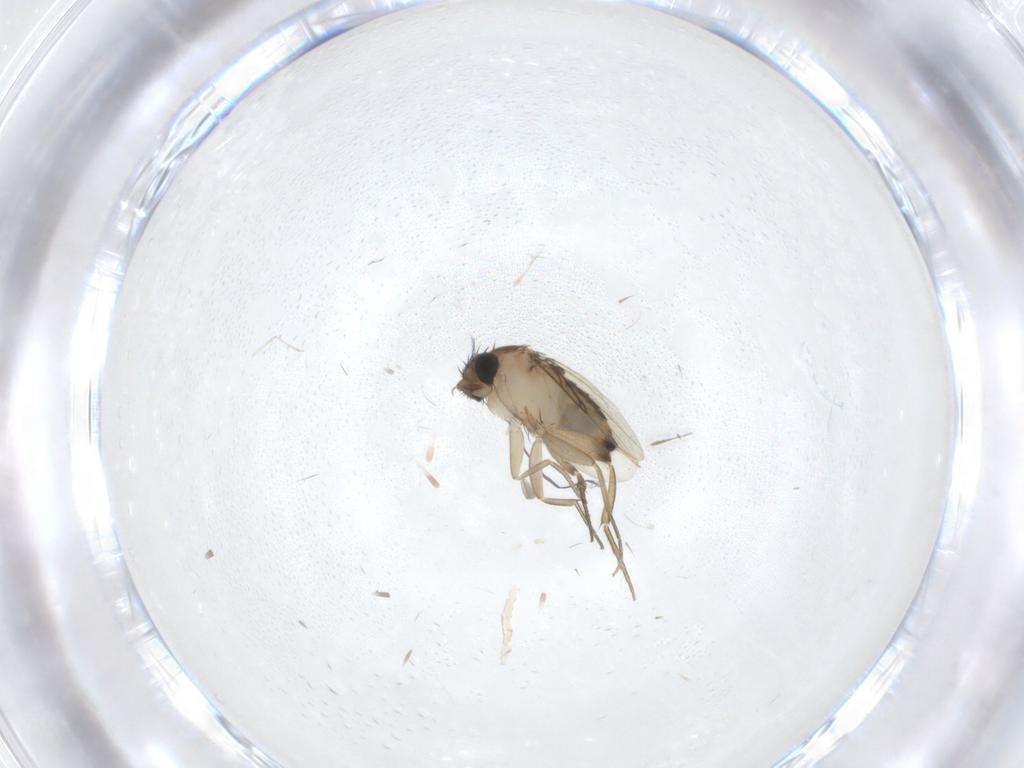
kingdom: Animalia
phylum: Arthropoda
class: Insecta
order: Diptera
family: Phoridae
